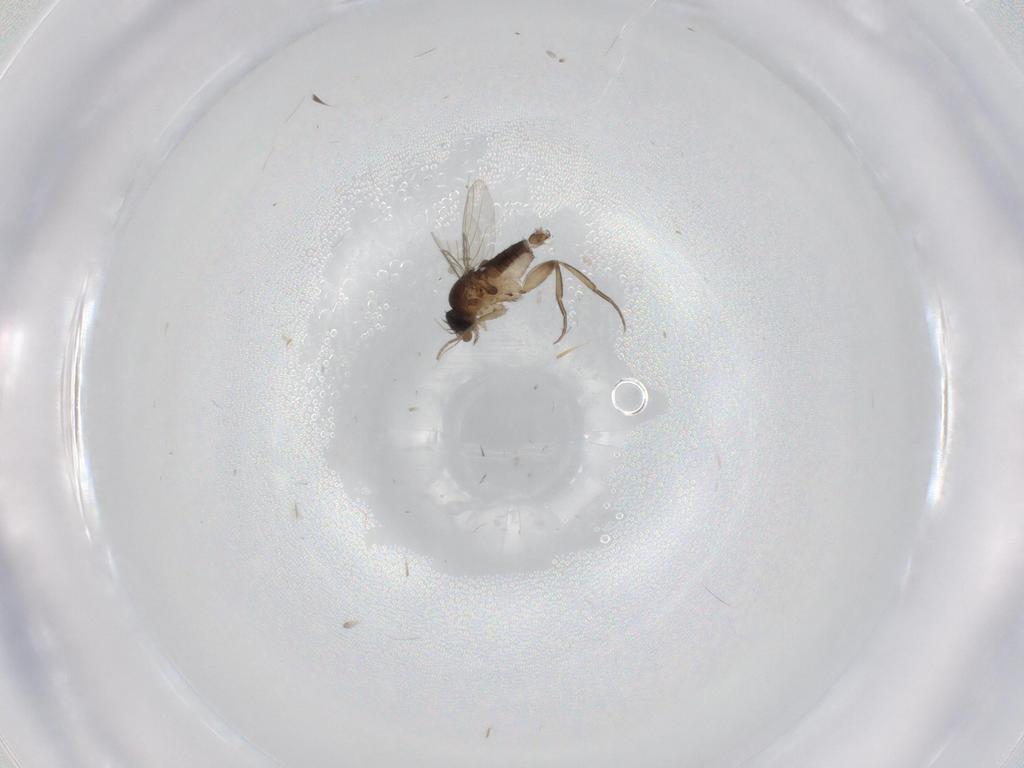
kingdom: Animalia
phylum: Arthropoda
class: Insecta
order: Diptera
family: Phoridae
